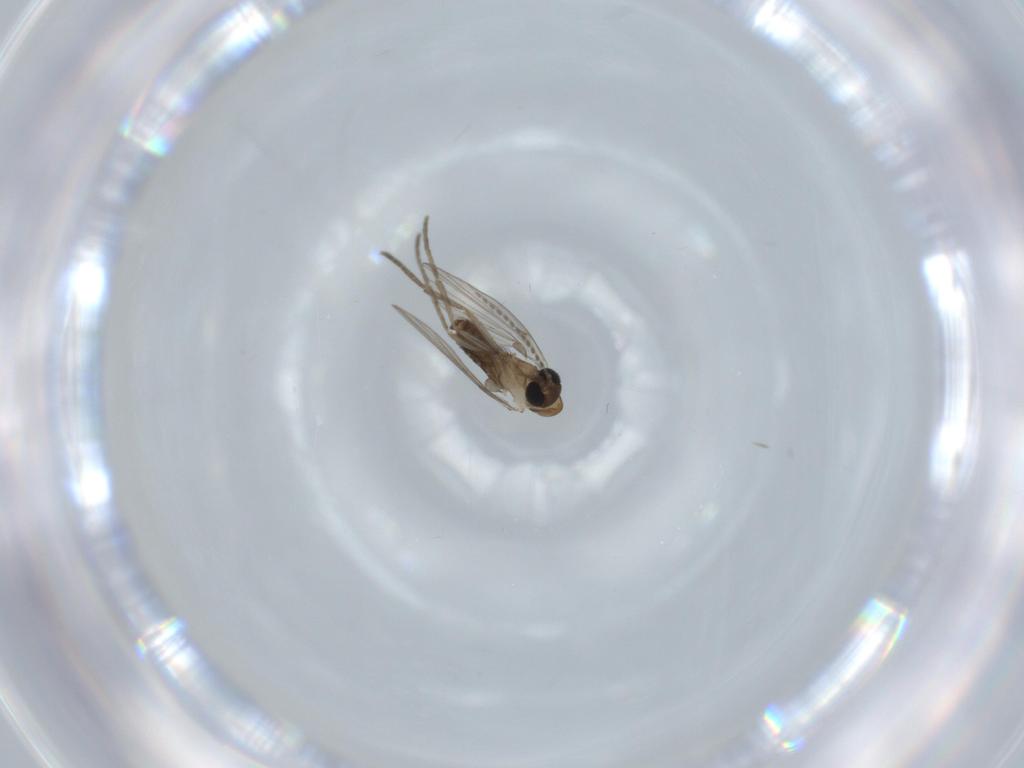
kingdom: Animalia
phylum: Arthropoda
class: Insecta
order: Diptera
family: Psychodidae
